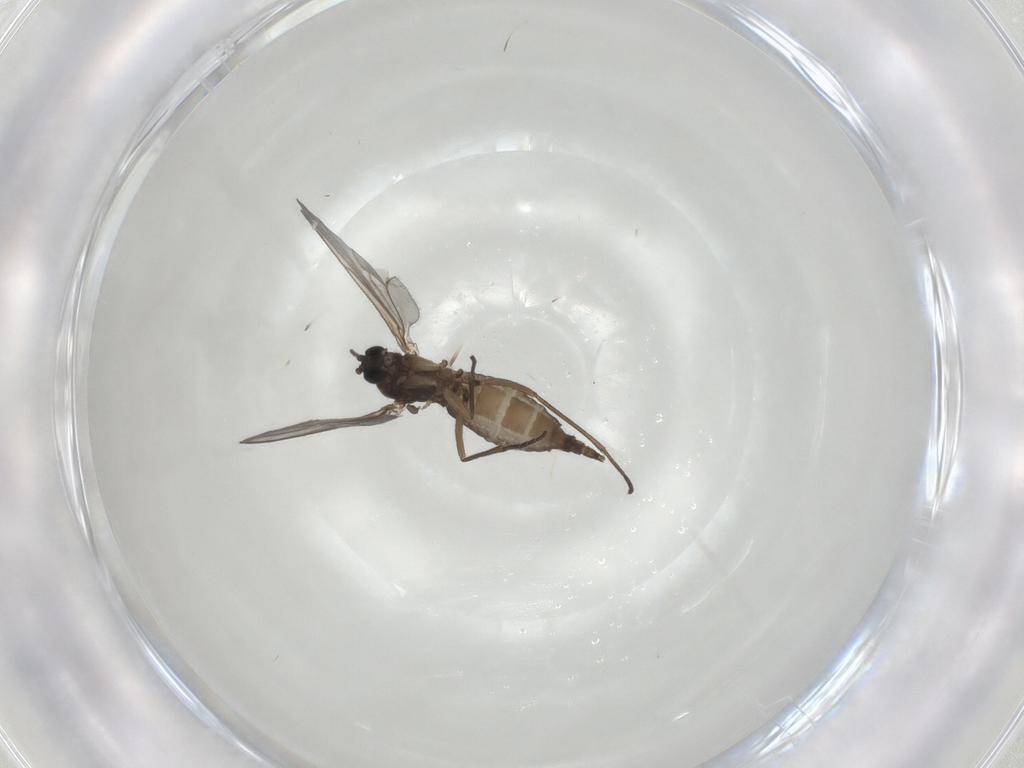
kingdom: Animalia
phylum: Arthropoda
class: Insecta
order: Diptera
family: Sciaridae
